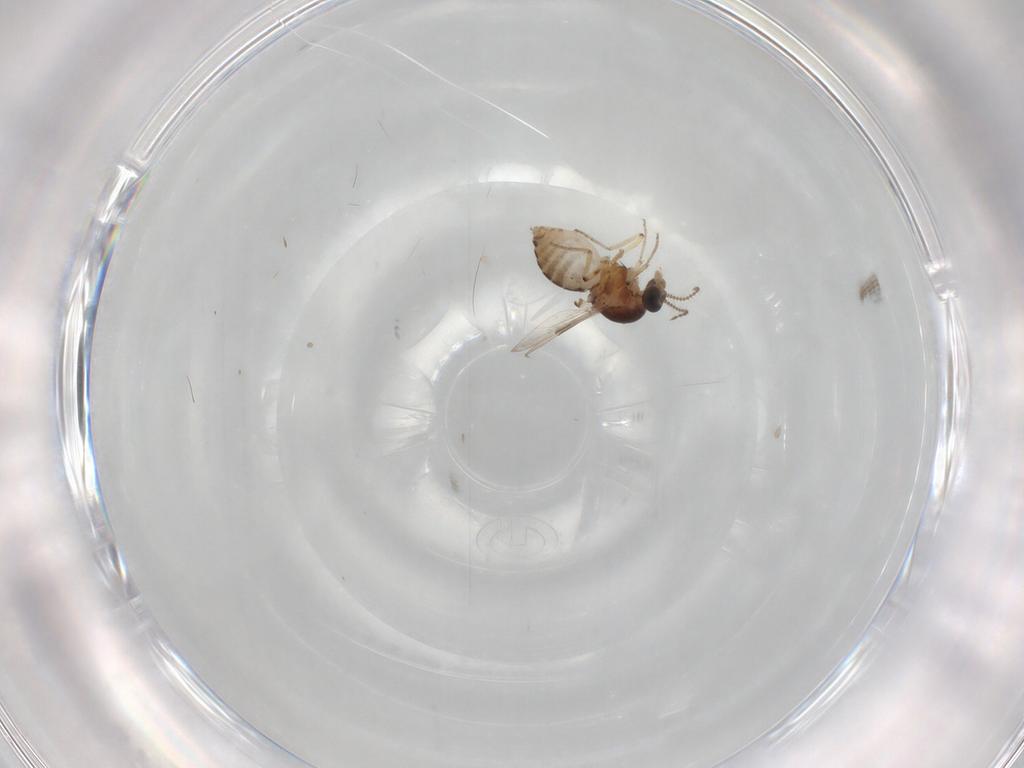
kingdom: Animalia
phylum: Arthropoda
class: Insecta
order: Diptera
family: Ceratopogonidae
